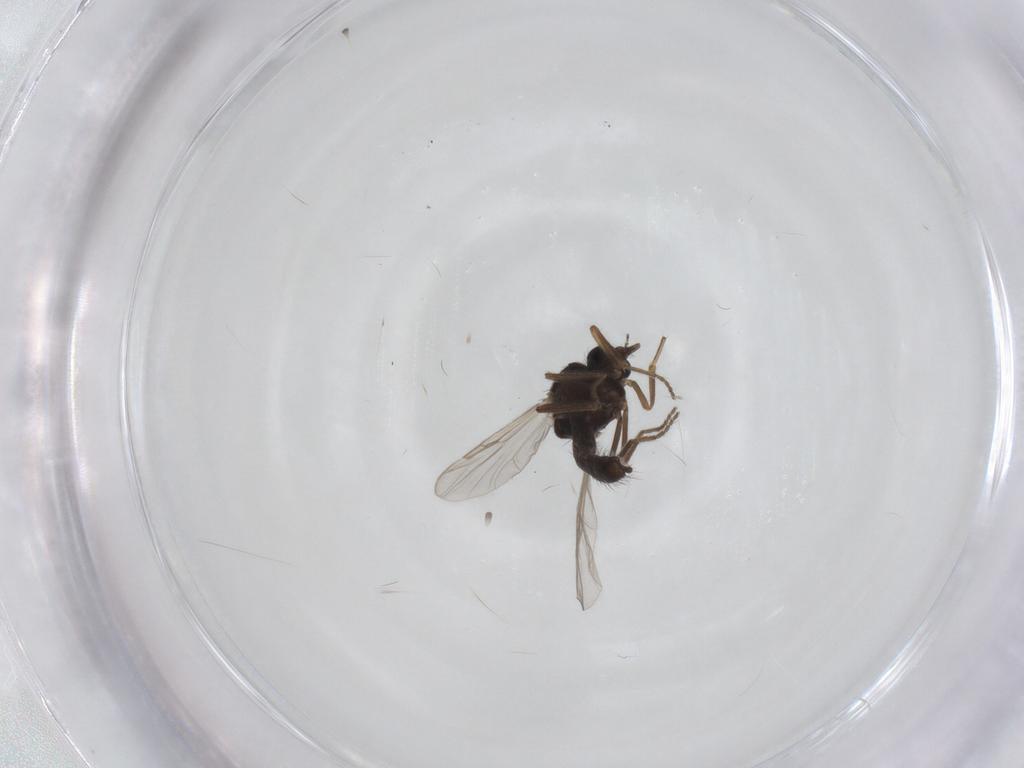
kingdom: Animalia
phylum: Arthropoda
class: Insecta
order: Diptera
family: Ceratopogonidae
